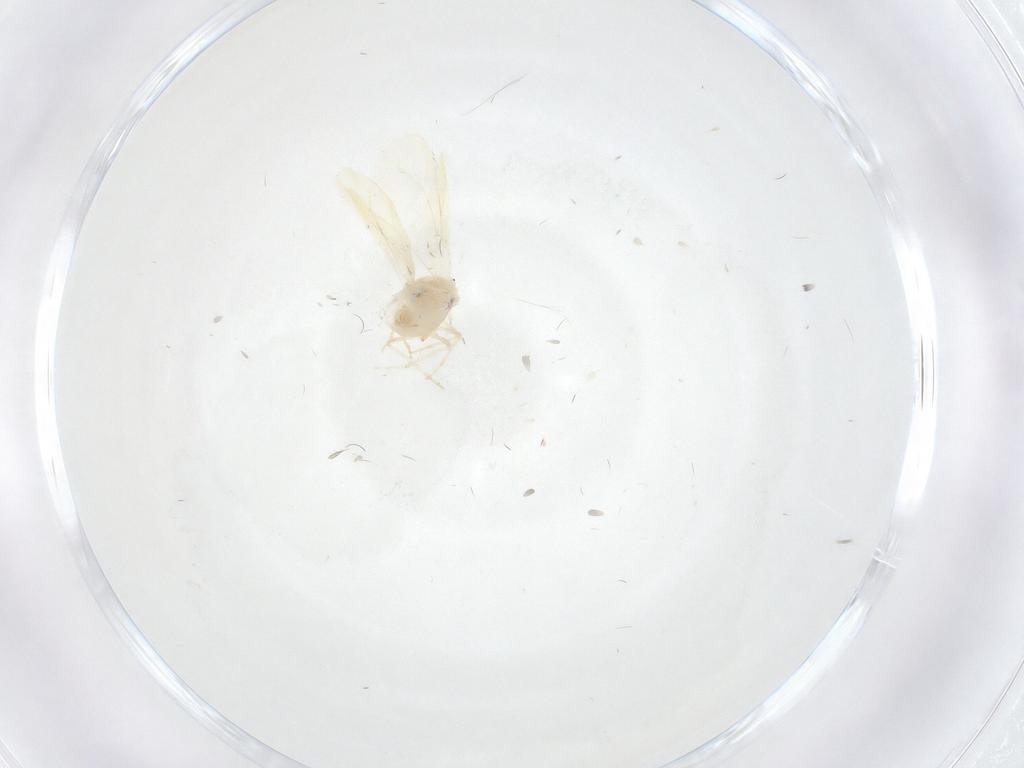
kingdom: Animalia
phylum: Arthropoda
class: Insecta
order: Hemiptera
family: Aleyrodidae
